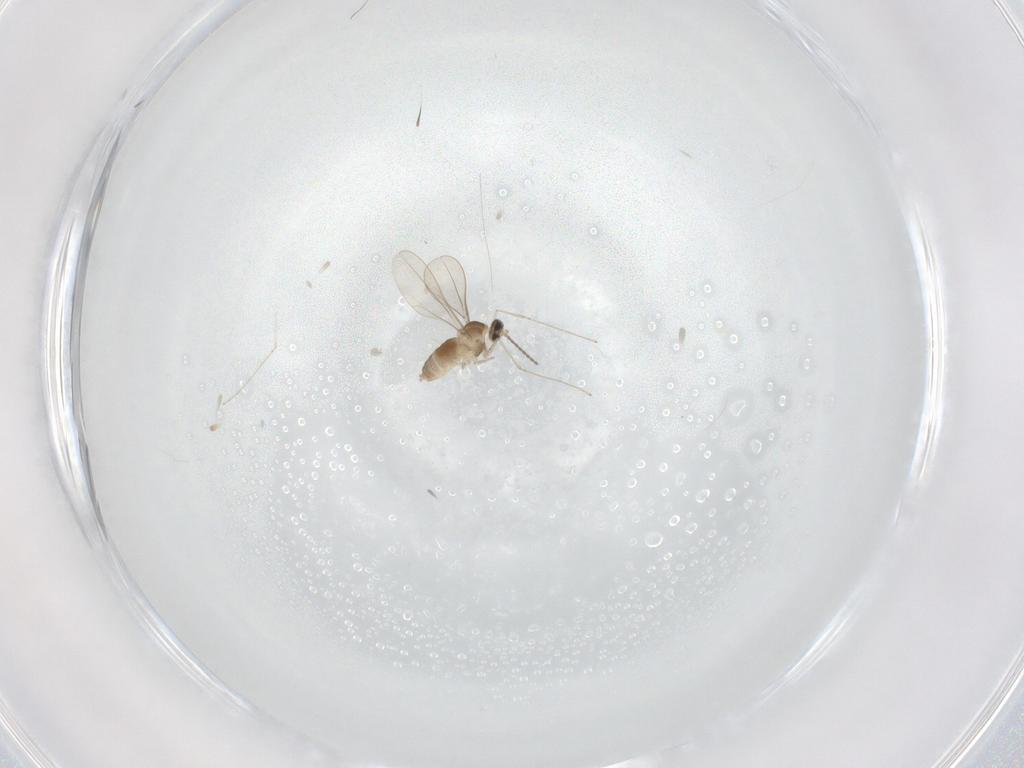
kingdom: Animalia
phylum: Arthropoda
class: Insecta
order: Diptera
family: Cecidomyiidae
